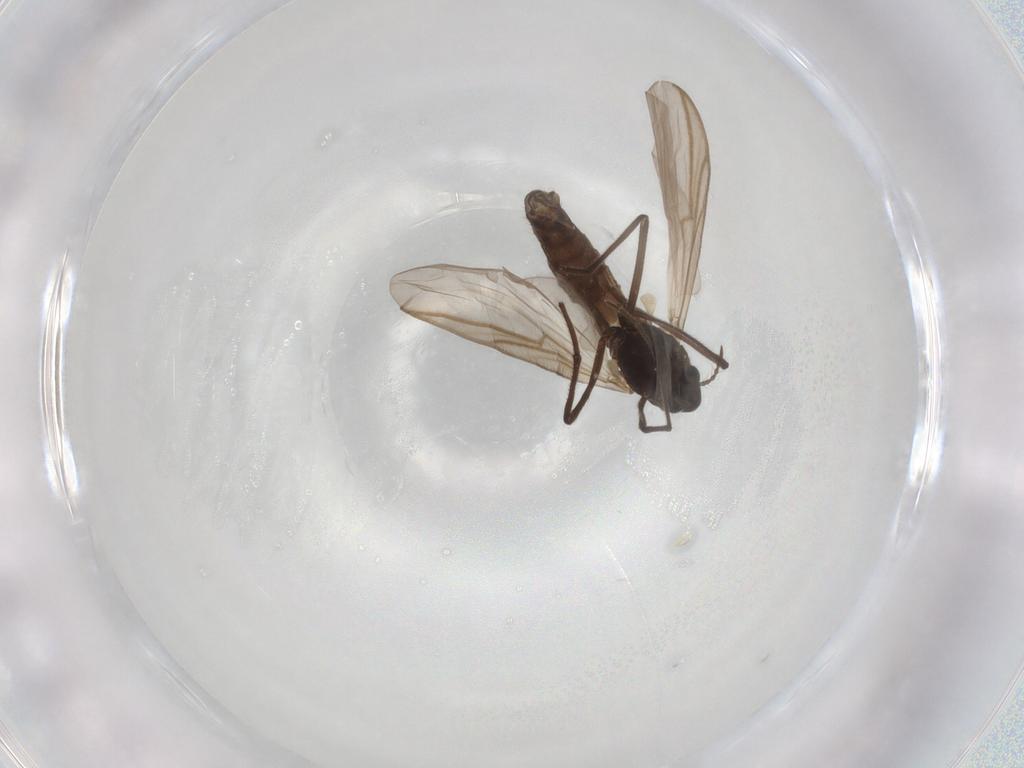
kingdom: Animalia
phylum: Arthropoda
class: Insecta
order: Diptera
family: Chironomidae
